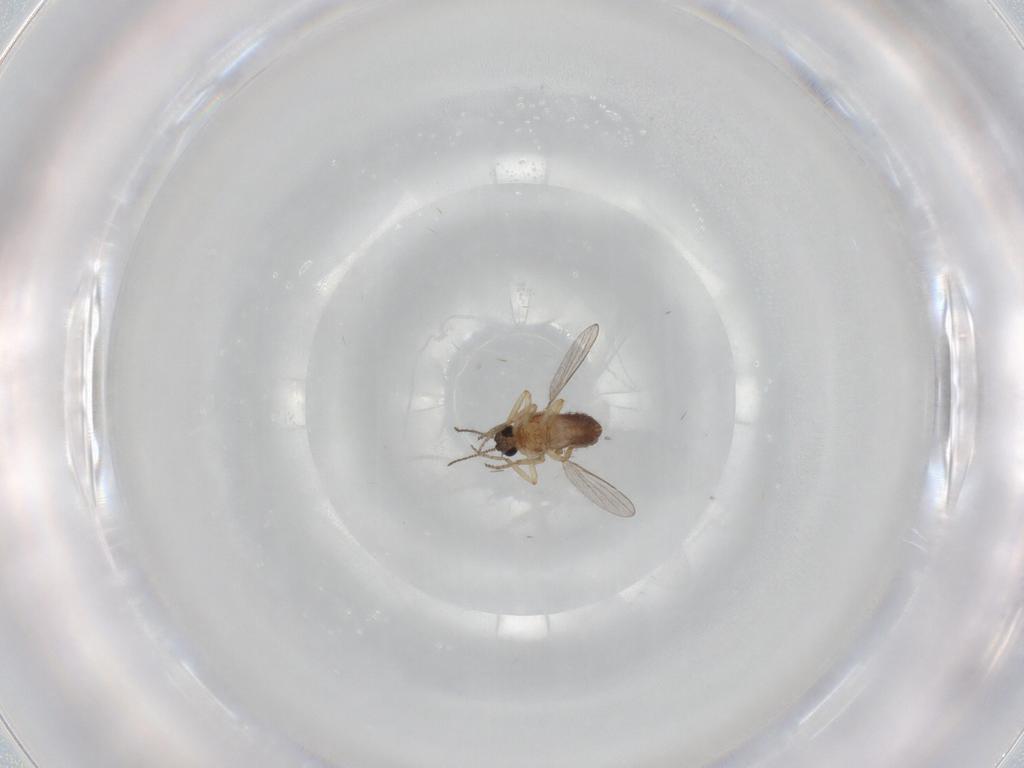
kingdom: Animalia
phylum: Arthropoda
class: Insecta
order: Diptera
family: Ceratopogonidae
